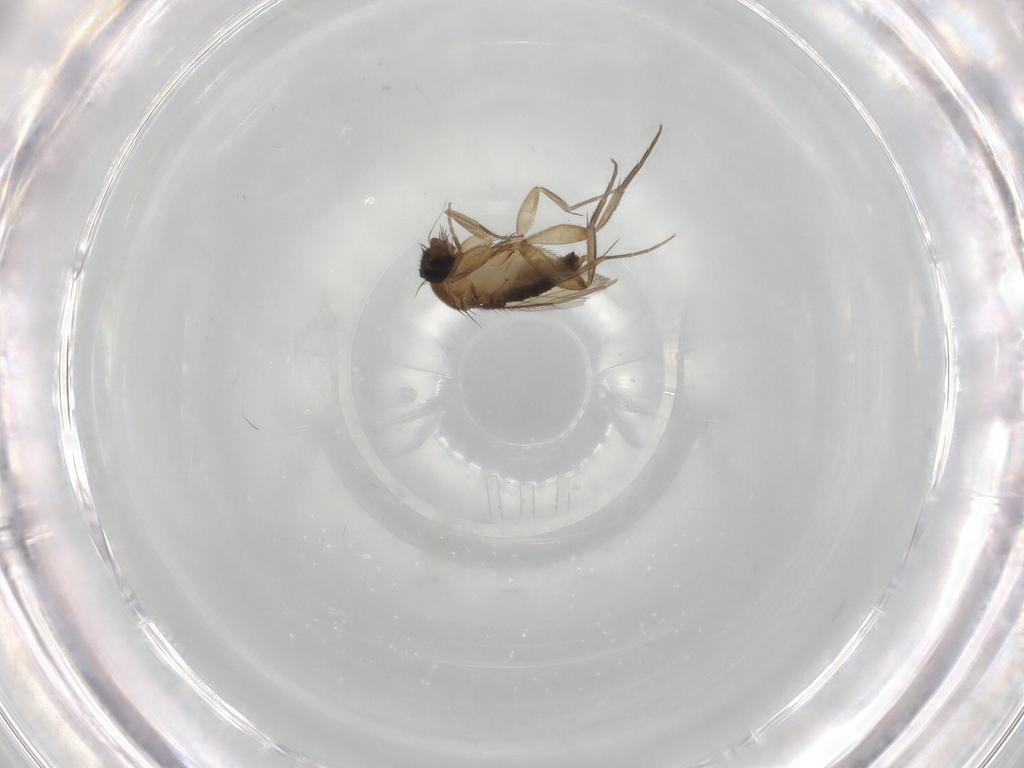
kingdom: Animalia
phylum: Arthropoda
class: Insecta
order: Diptera
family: Phoridae
